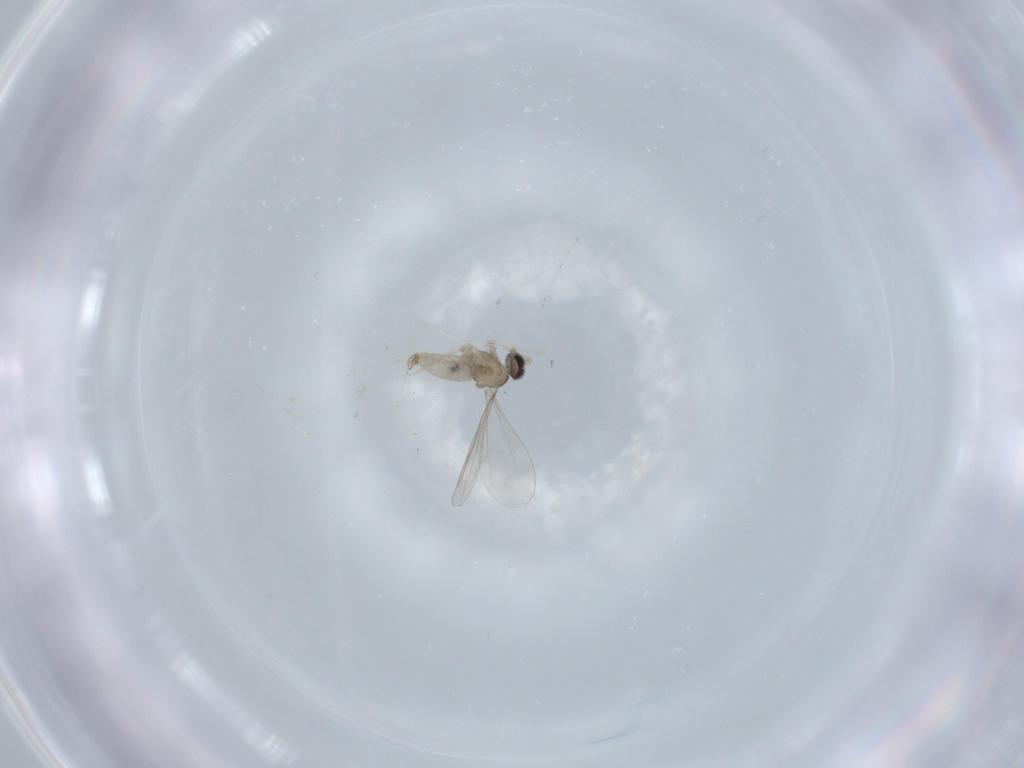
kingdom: Animalia
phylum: Arthropoda
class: Insecta
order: Diptera
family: Cecidomyiidae
